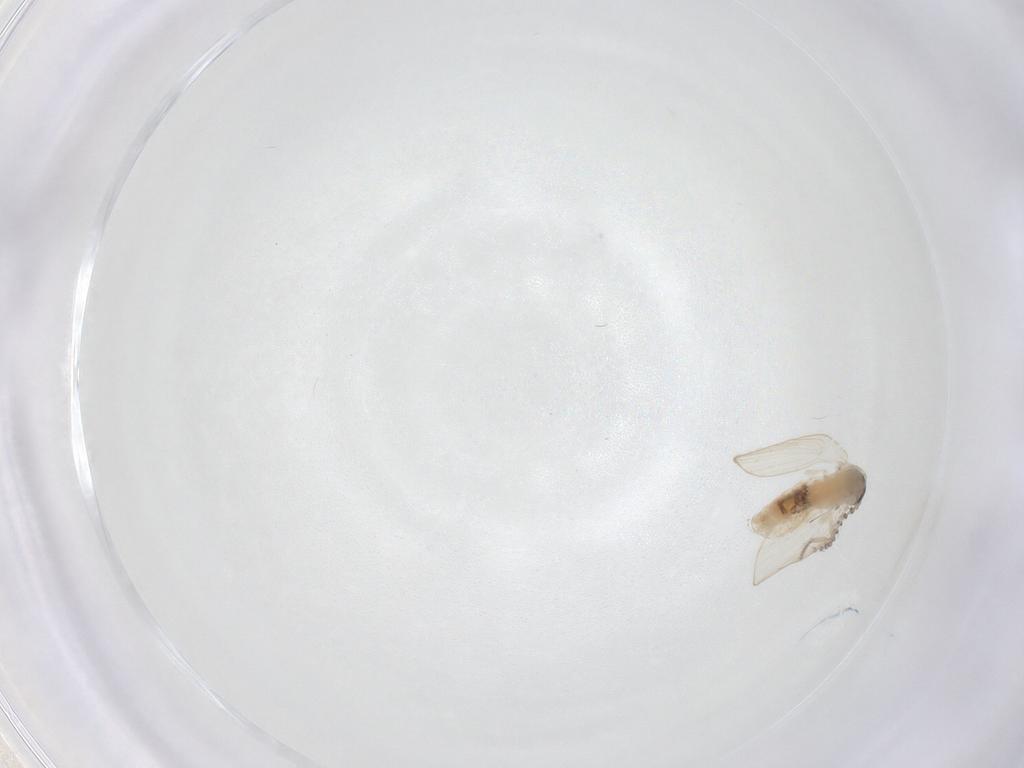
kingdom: Animalia
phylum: Arthropoda
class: Insecta
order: Diptera
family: Psychodidae
